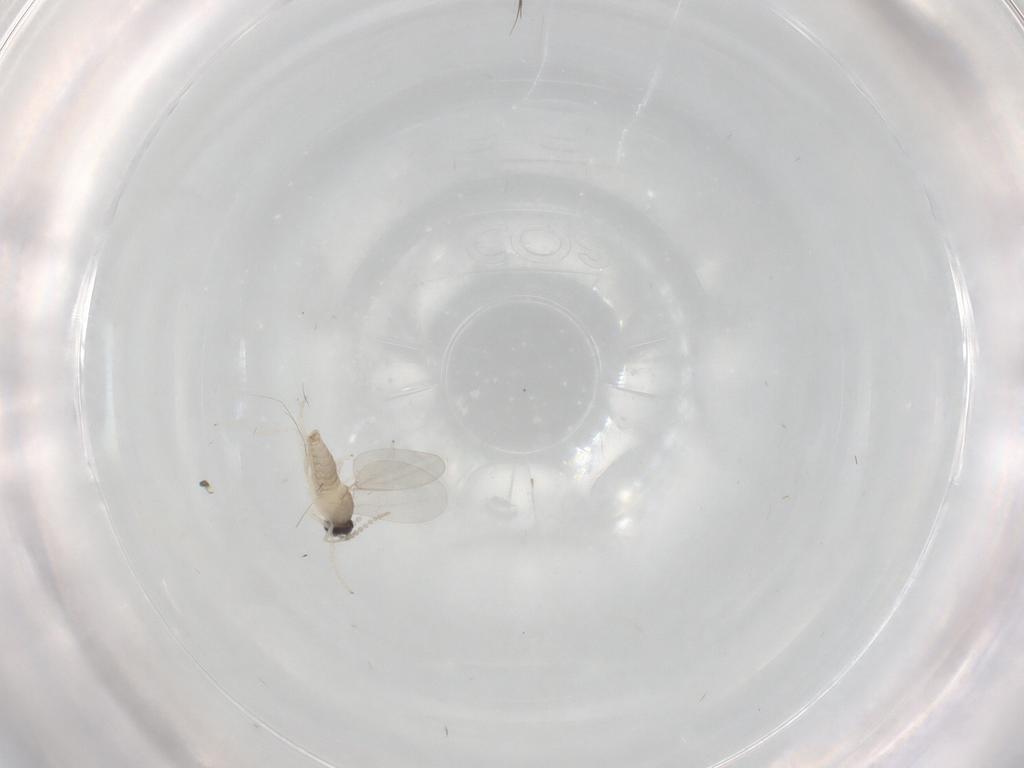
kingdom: Animalia
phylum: Arthropoda
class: Insecta
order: Diptera
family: Cecidomyiidae
